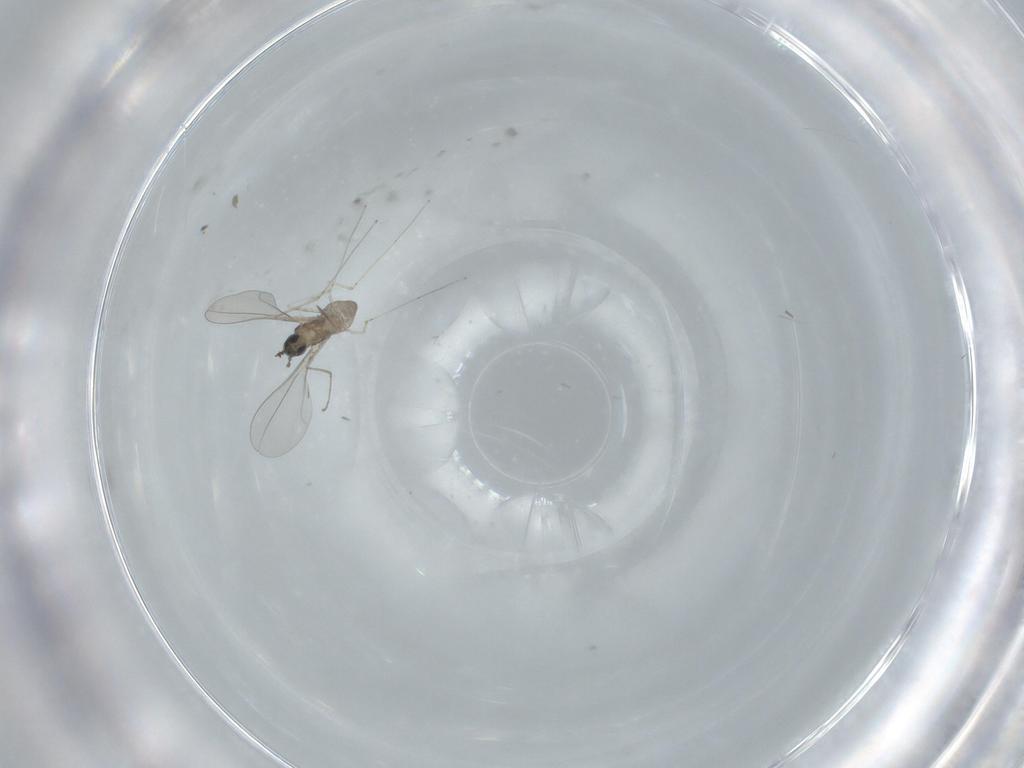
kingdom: Animalia
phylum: Arthropoda
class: Insecta
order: Diptera
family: Cecidomyiidae
